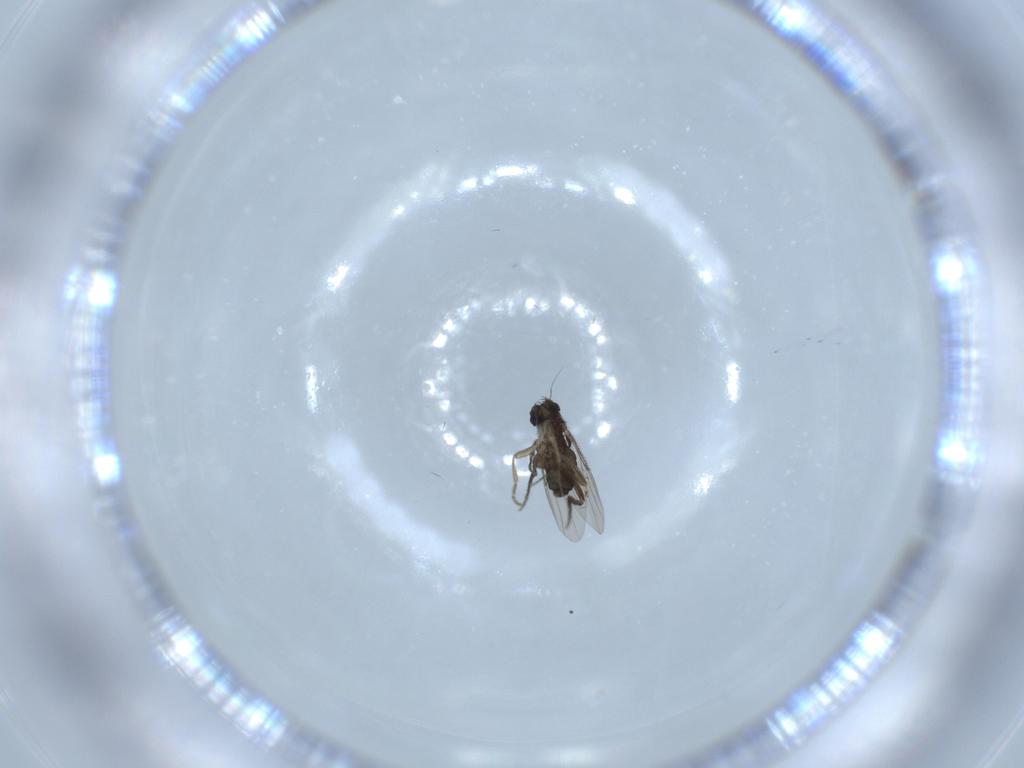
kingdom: Animalia
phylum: Arthropoda
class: Insecta
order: Diptera
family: Phoridae
